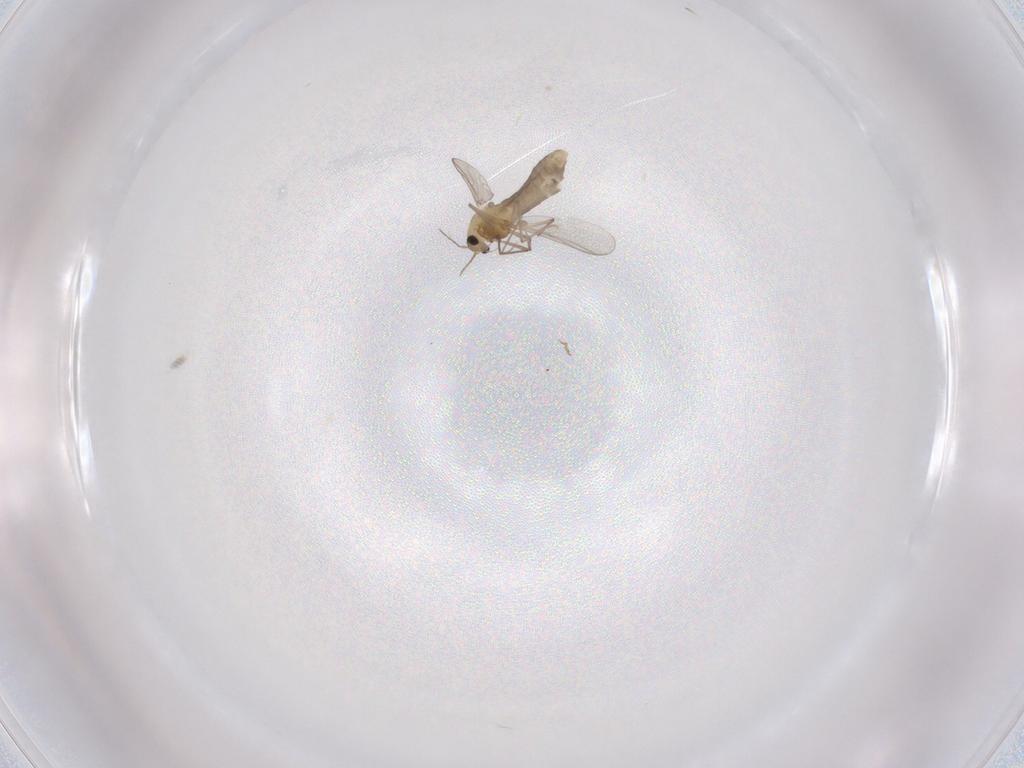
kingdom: Animalia
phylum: Arthropoda
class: Insecta
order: Diptera
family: Chironomidae
